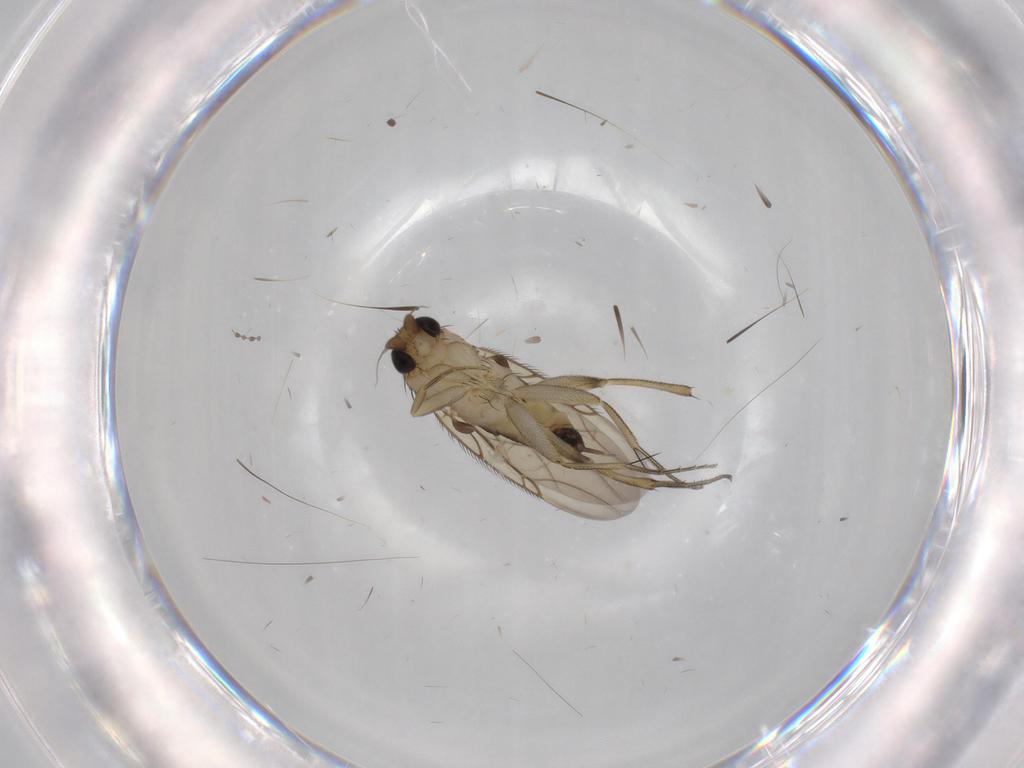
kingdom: Animalia
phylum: Arthropoda
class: Insecta
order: Diptera
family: Phoridae
